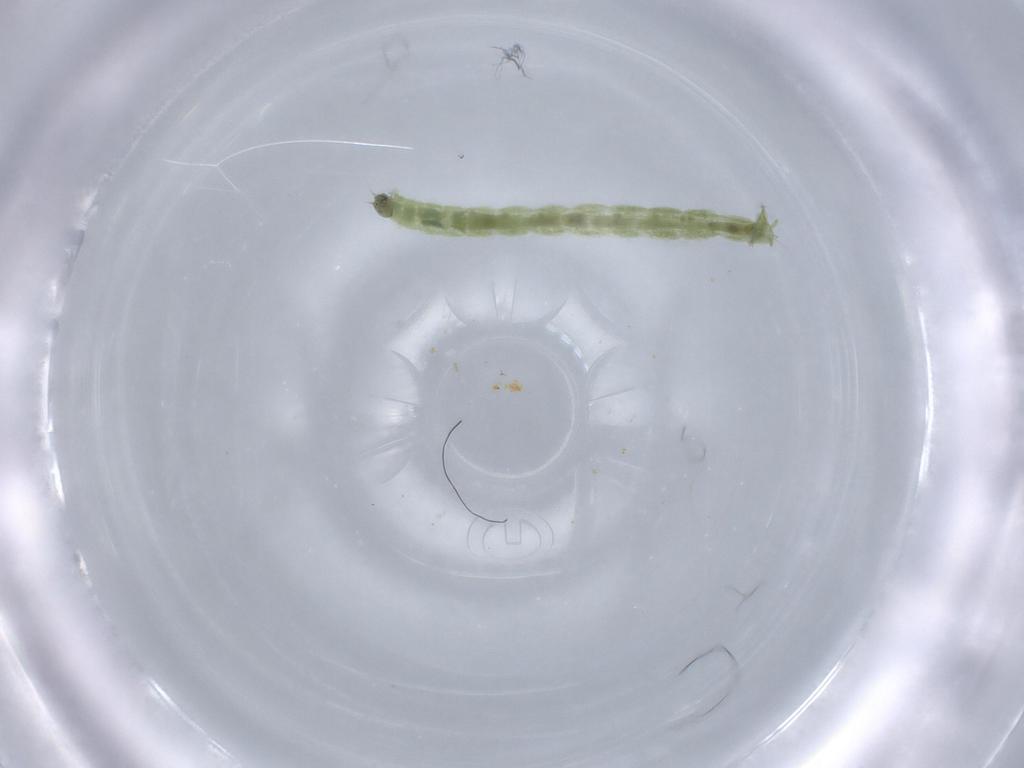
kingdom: Animalia
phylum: Arthropoda
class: Insecta
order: Diptera
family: Chironomidae
